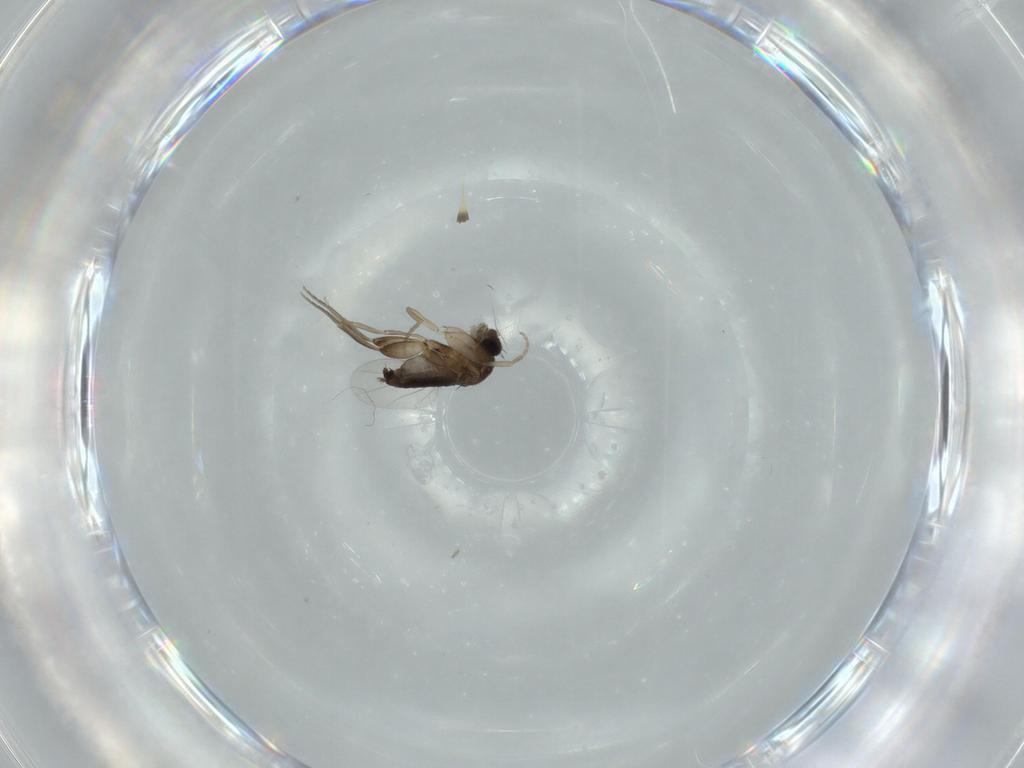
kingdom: Animalia
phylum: Arthropoda
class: Insecta
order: Diptera
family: Phoridae
